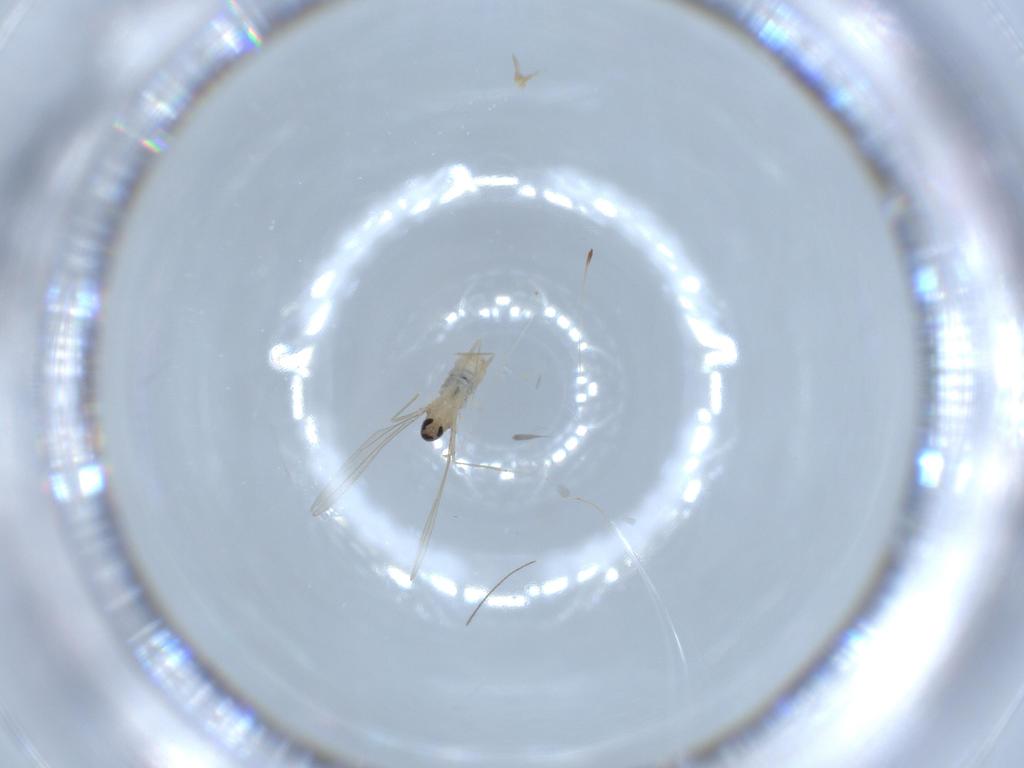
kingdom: Animalia
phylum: Arthropoda
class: Insecta
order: Diptera
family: Cecidomyiidae
